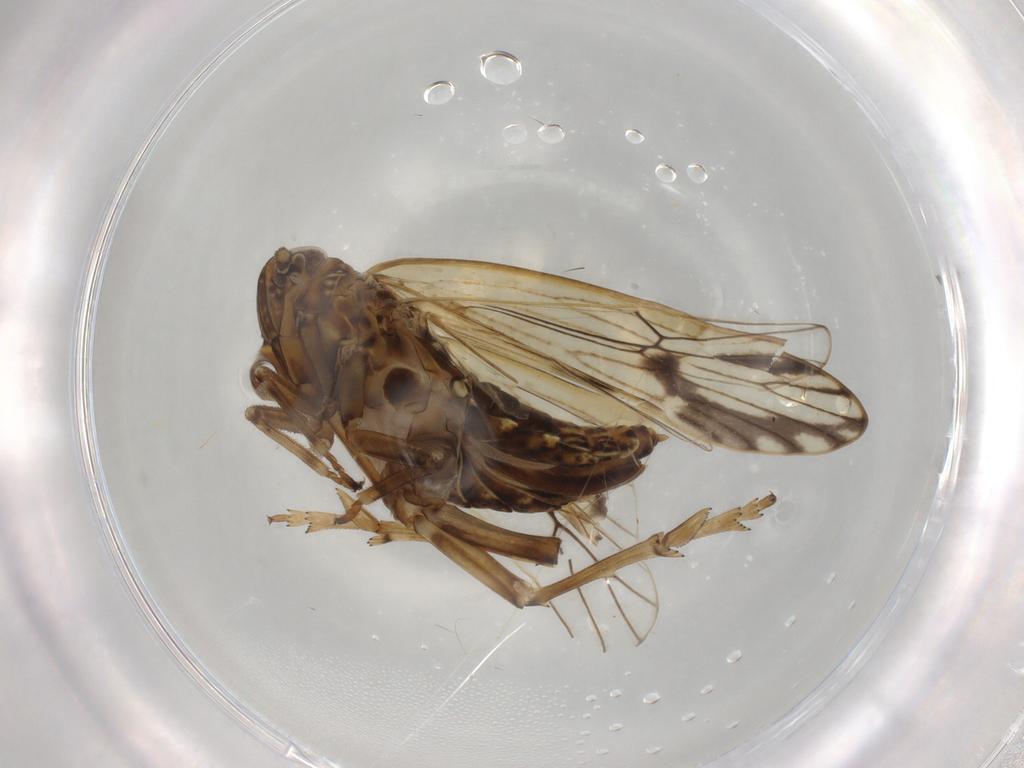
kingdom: Animalia
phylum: Arthropoda
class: Insecta
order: Hemiptera
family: Delphacidae
